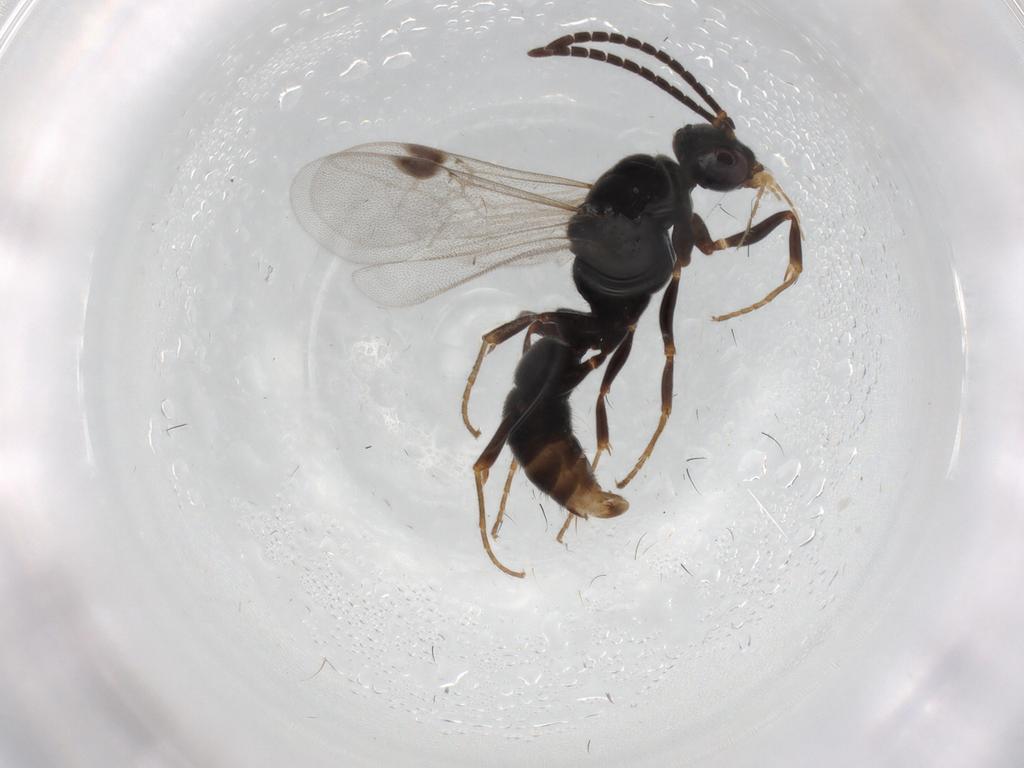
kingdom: Animalia
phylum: Arthropoda
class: Insecta
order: Hymenoptera
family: Formicidae
